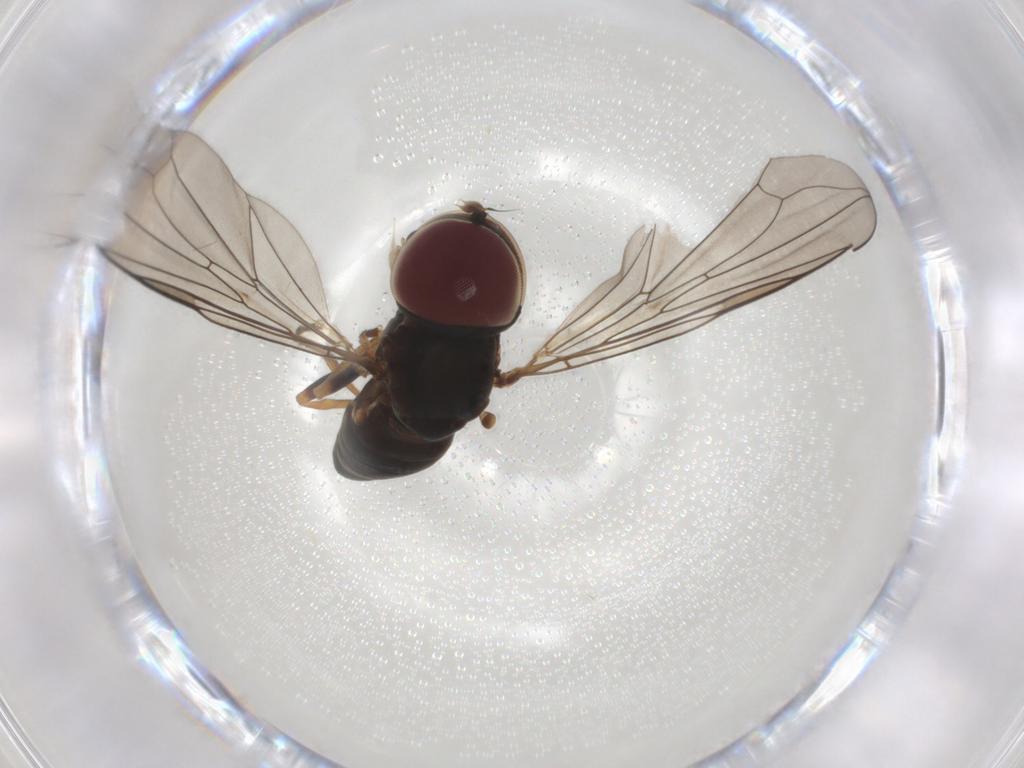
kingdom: Animalia
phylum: Arthropoda
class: Insecta
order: Diptera
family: Pipunculidae
